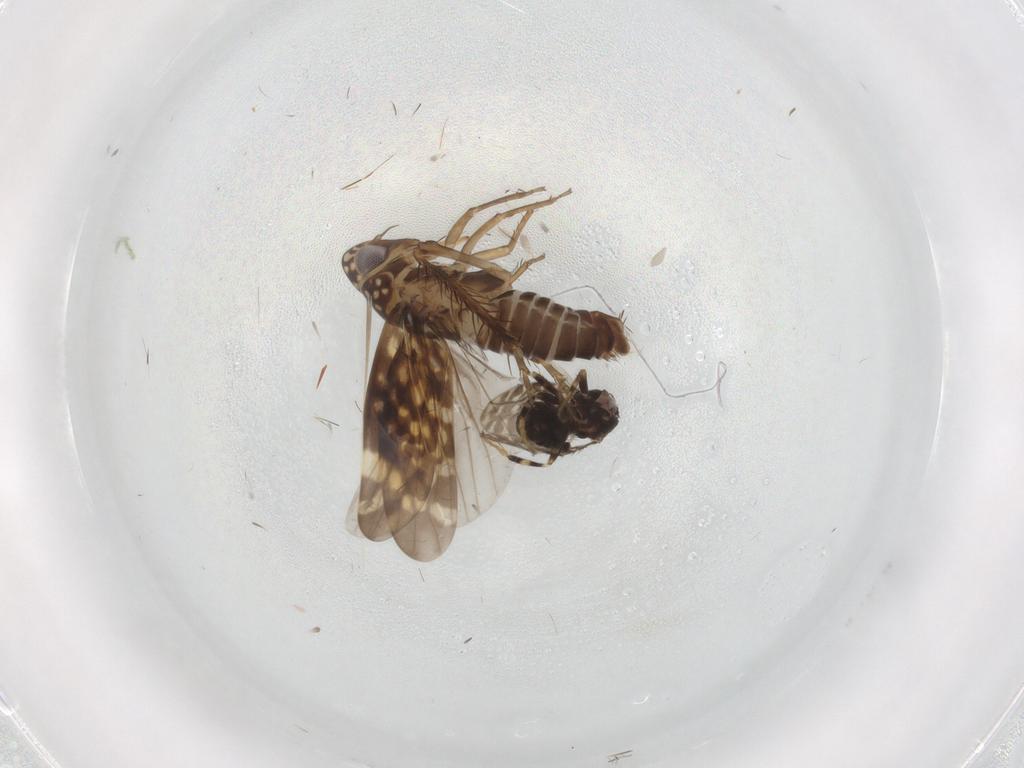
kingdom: Animalia
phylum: Arthropoda
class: Insecta
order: Diptera
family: Sphaeroceridae
